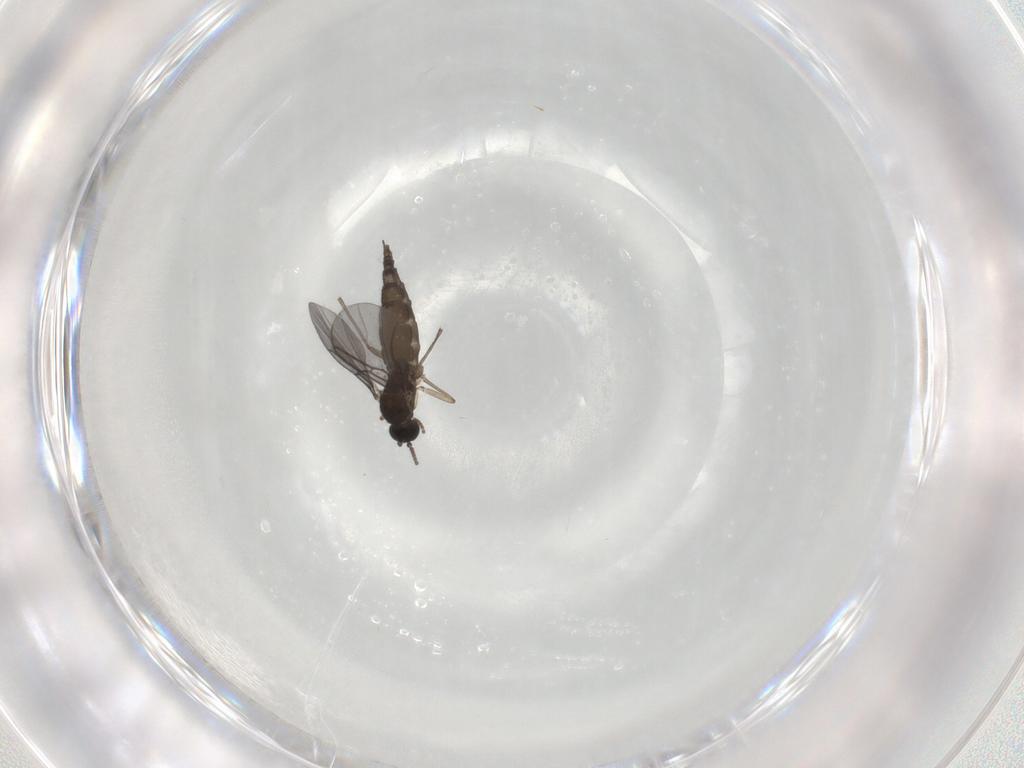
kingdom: Animalia
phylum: Arthropoda
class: Insecta
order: Diptera
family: Sciaridae
